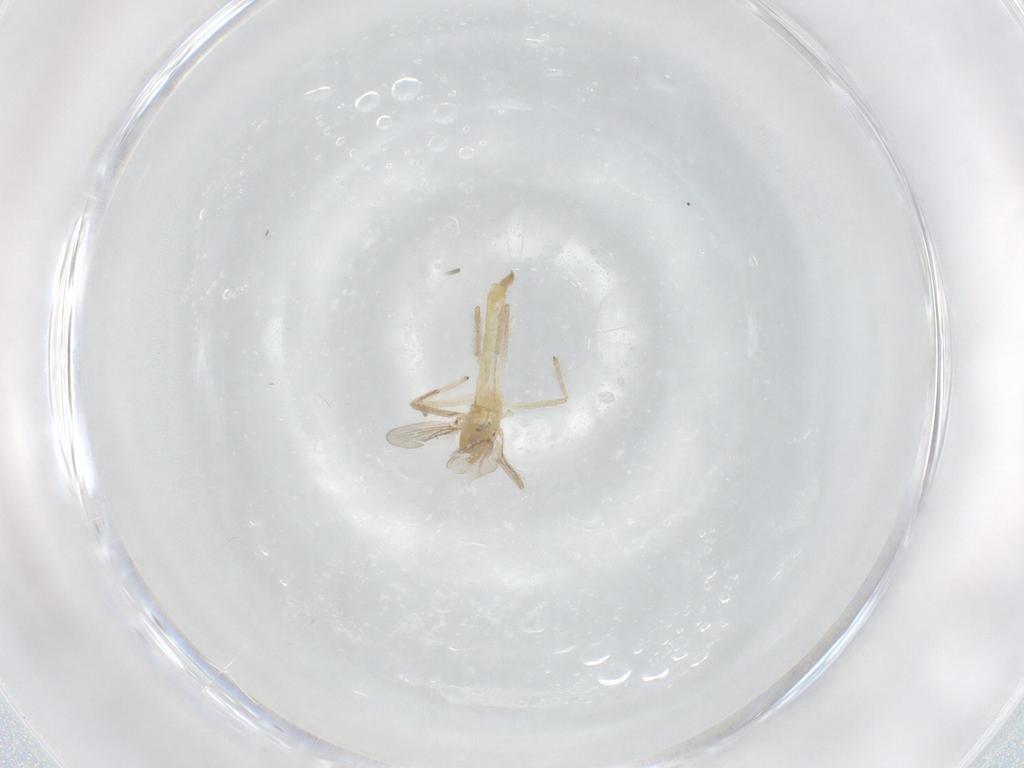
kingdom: Animalia
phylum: Arthropoda
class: Insecta
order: Diptera
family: Chironomidae
